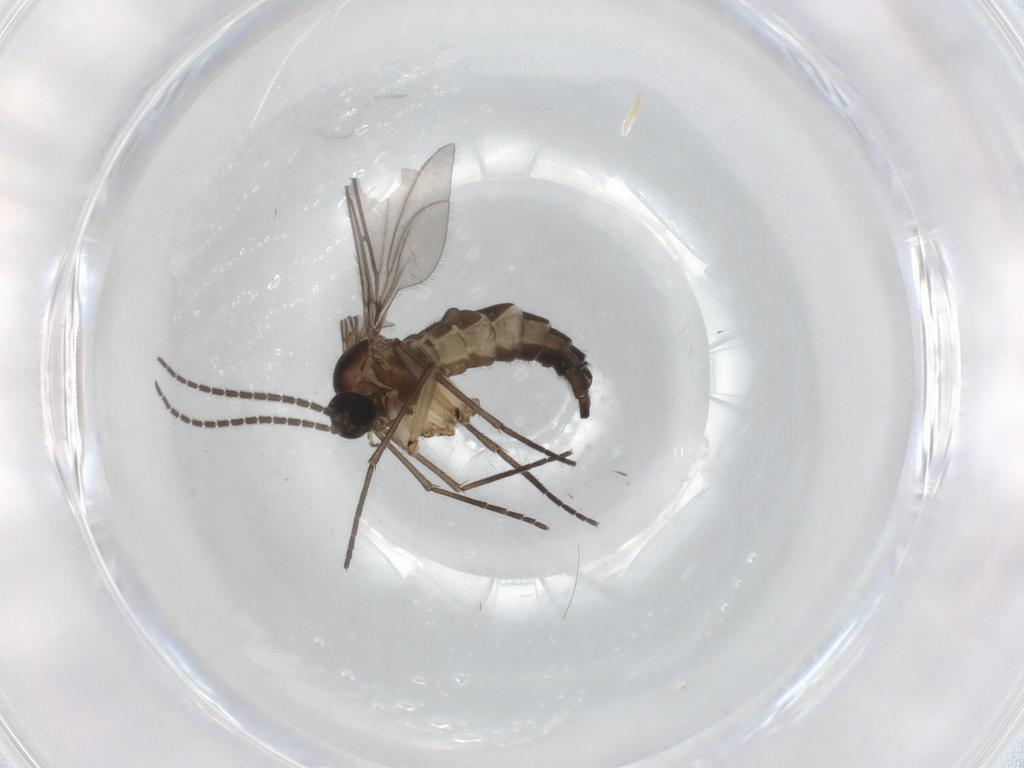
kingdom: Animalia
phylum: Arthropoda
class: Insecta
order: Diptera
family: Sciaridae
